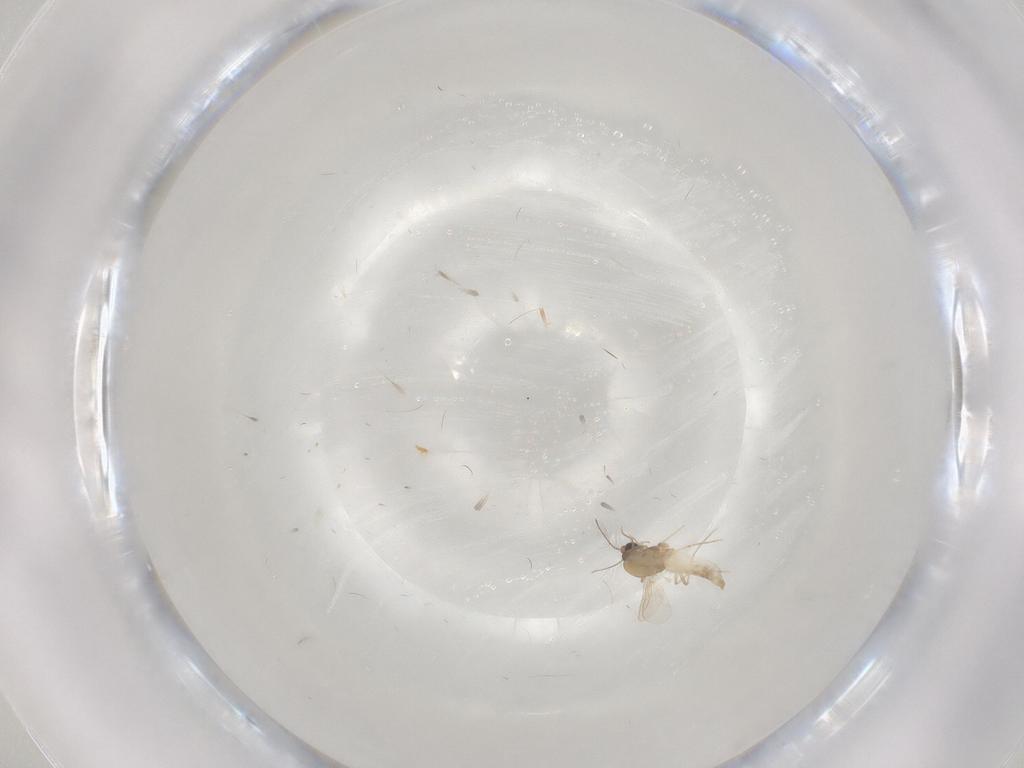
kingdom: Animalia
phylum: Arthropoda
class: Insecta
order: Diptera
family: Chironomidae
